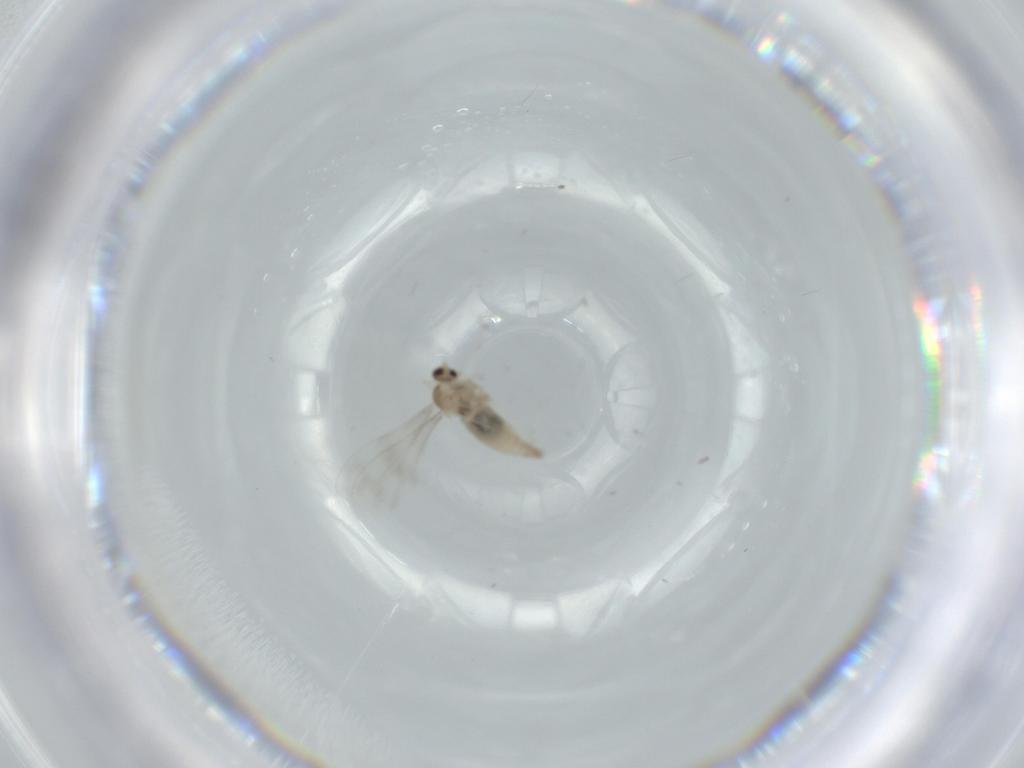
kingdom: Animalia
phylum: Arthropoda
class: Insecta
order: Diptera
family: Cecidomyiidae
